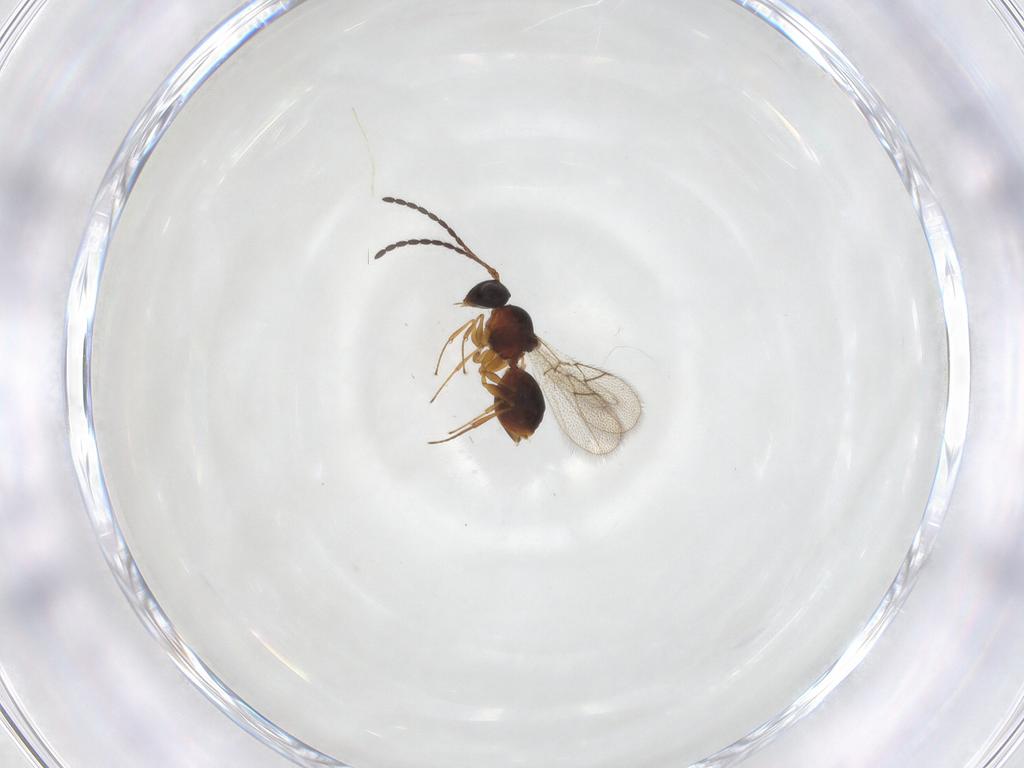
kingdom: Animalia
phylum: Arthropoda
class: Insecta
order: Hymenoptera
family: Figitidae
